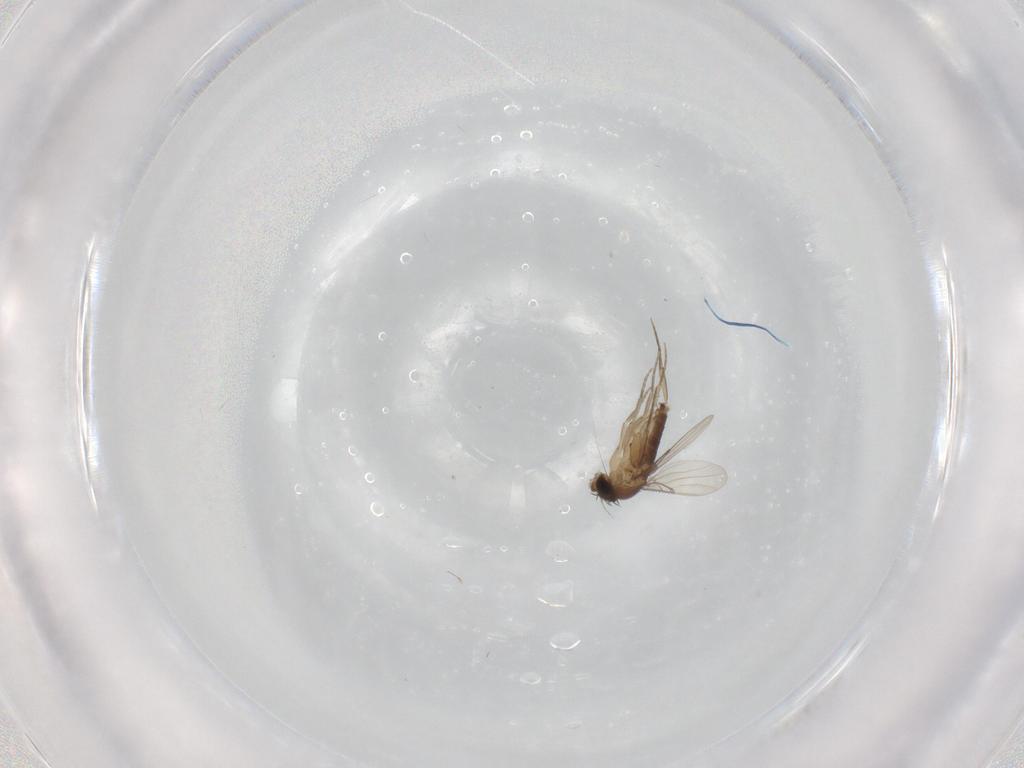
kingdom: Animalia
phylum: Arthropoda
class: Insecta
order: Diptera
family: Phoridae
